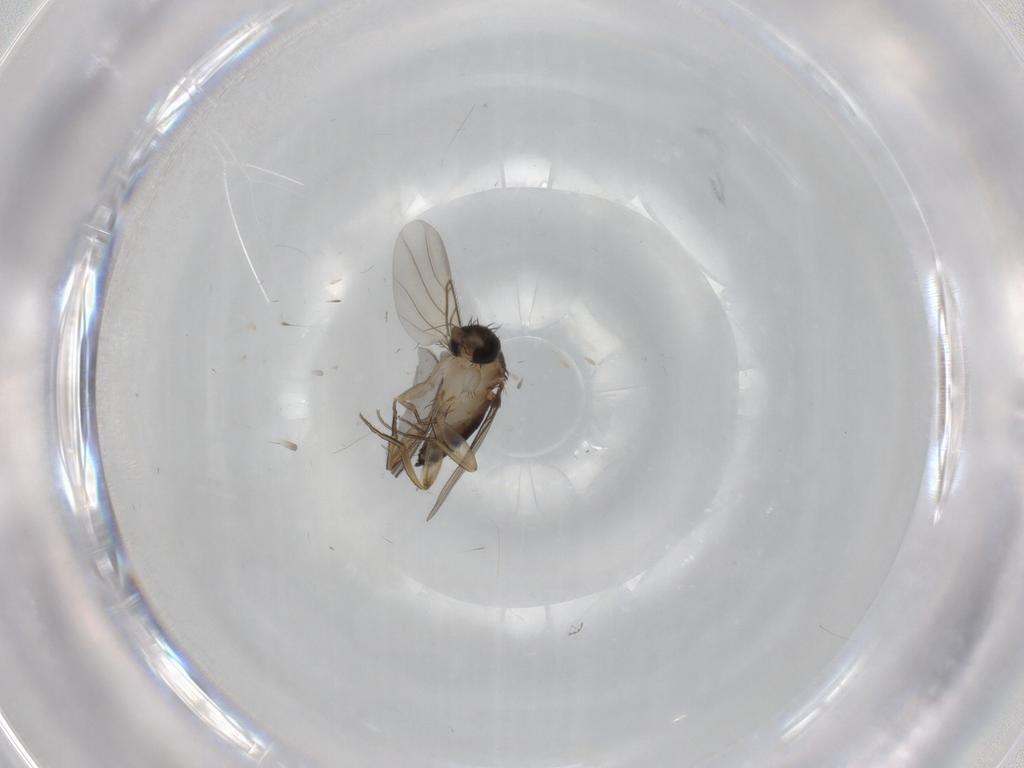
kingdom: Animalia
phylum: Arthropoda
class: Insecta
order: Diptera
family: Phoridae
